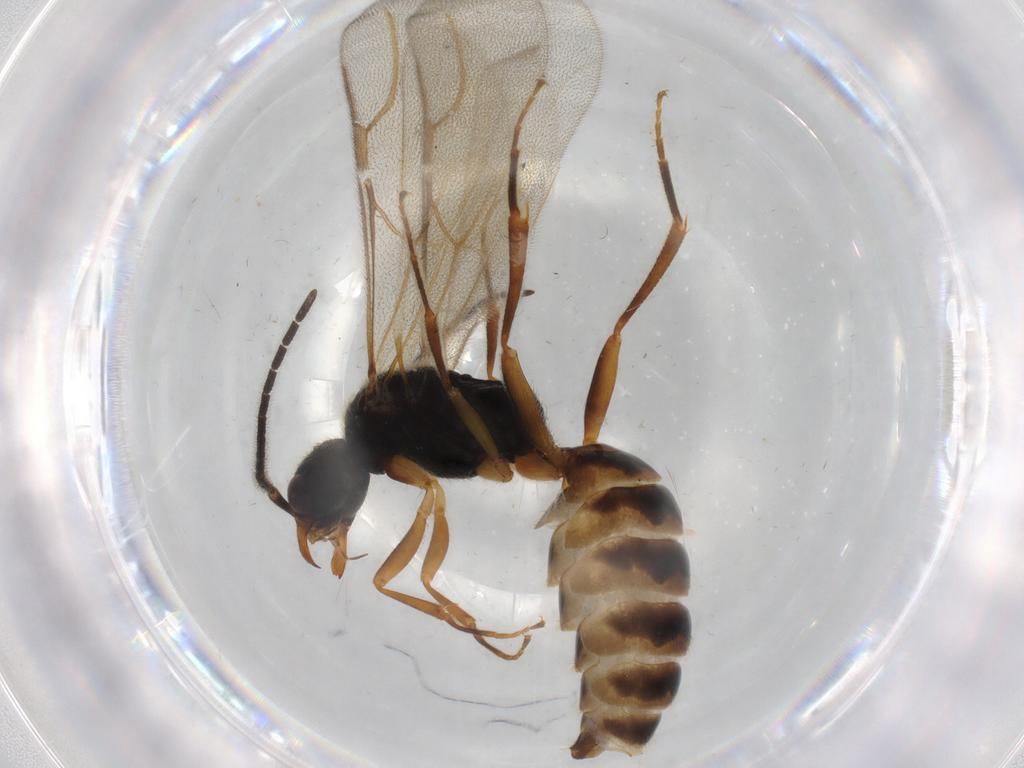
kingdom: Animalia
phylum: Arthropoda
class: Insecta
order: Hymenoptera
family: Bethylidae
